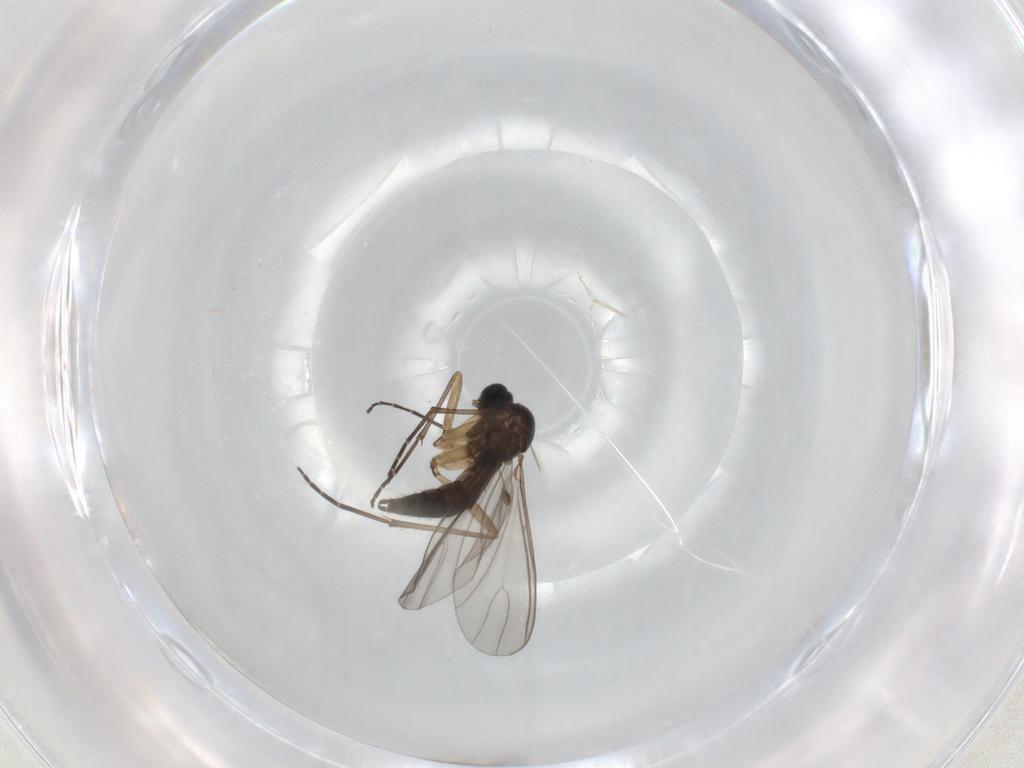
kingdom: Animalia
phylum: Arthropoda
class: Insecta
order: Diptera
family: Sciaridae
